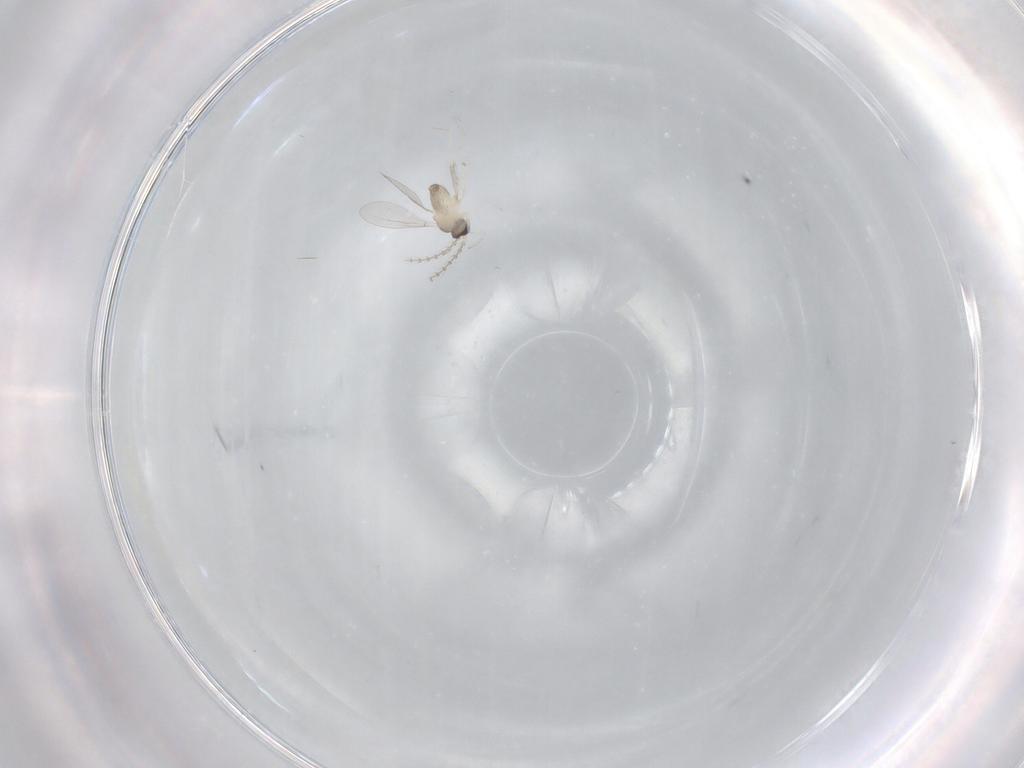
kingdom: Animalia
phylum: Arthropoda
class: Insecta
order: Diptera
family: Cecidomyiidae
